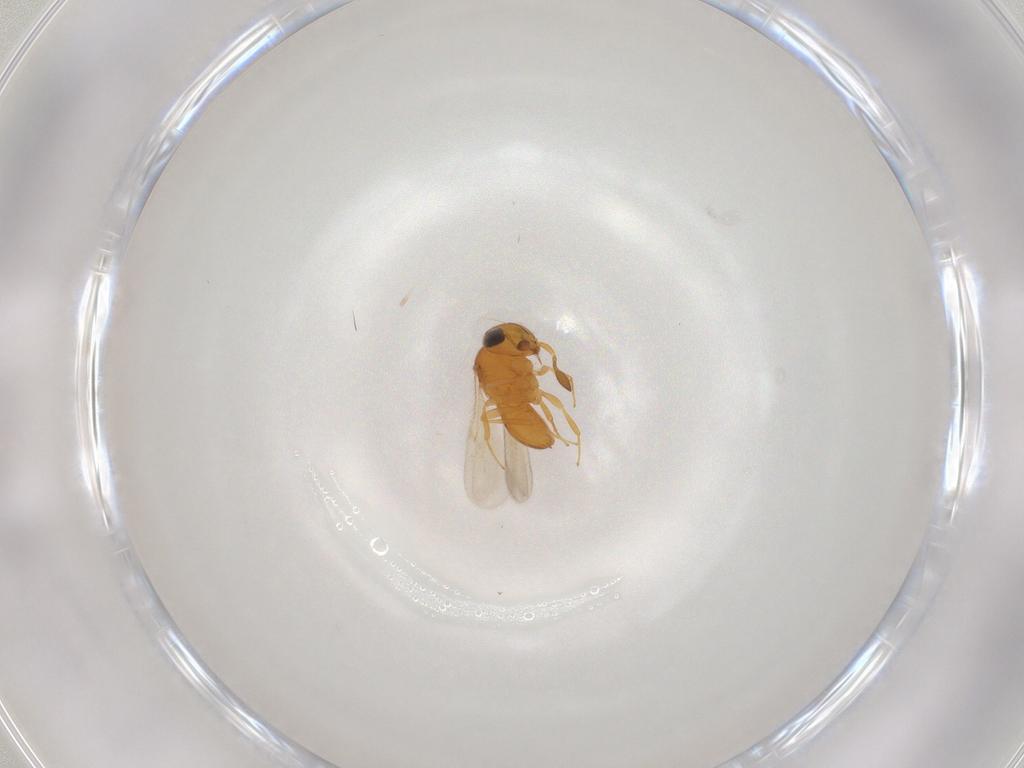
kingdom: Animalia
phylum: Arthropoda
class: Insecta
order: Hymenoptera
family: Scelionidae
